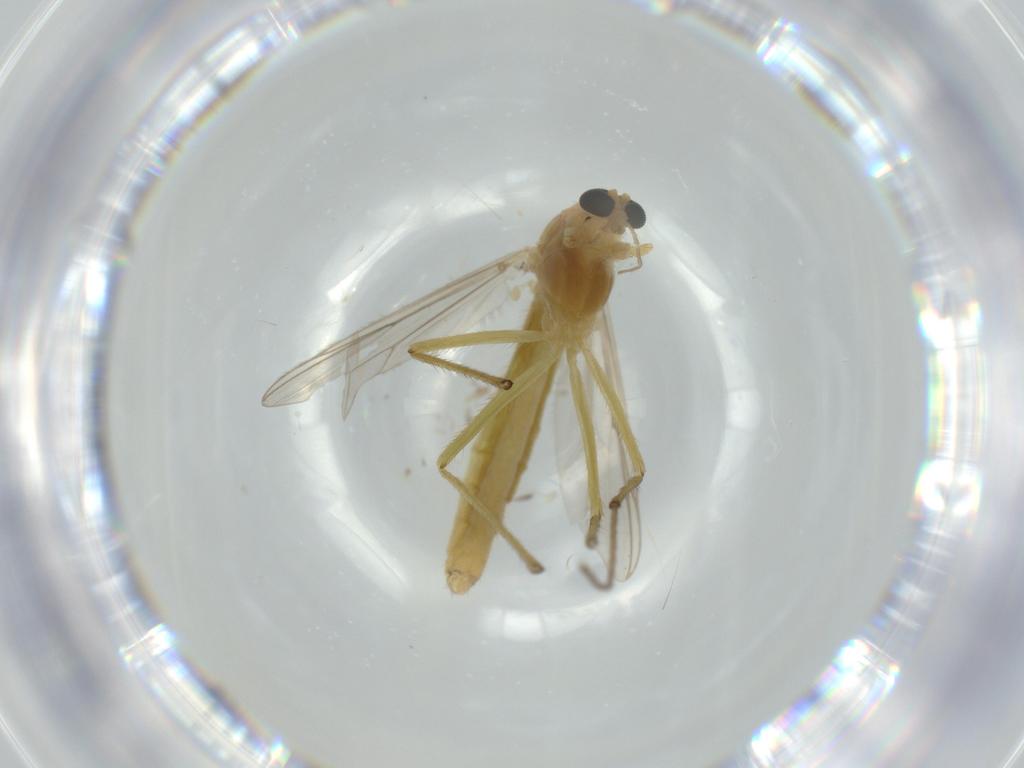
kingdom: Animalia
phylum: Arthropoda
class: Insecta
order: Diptera
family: Chironomidae
